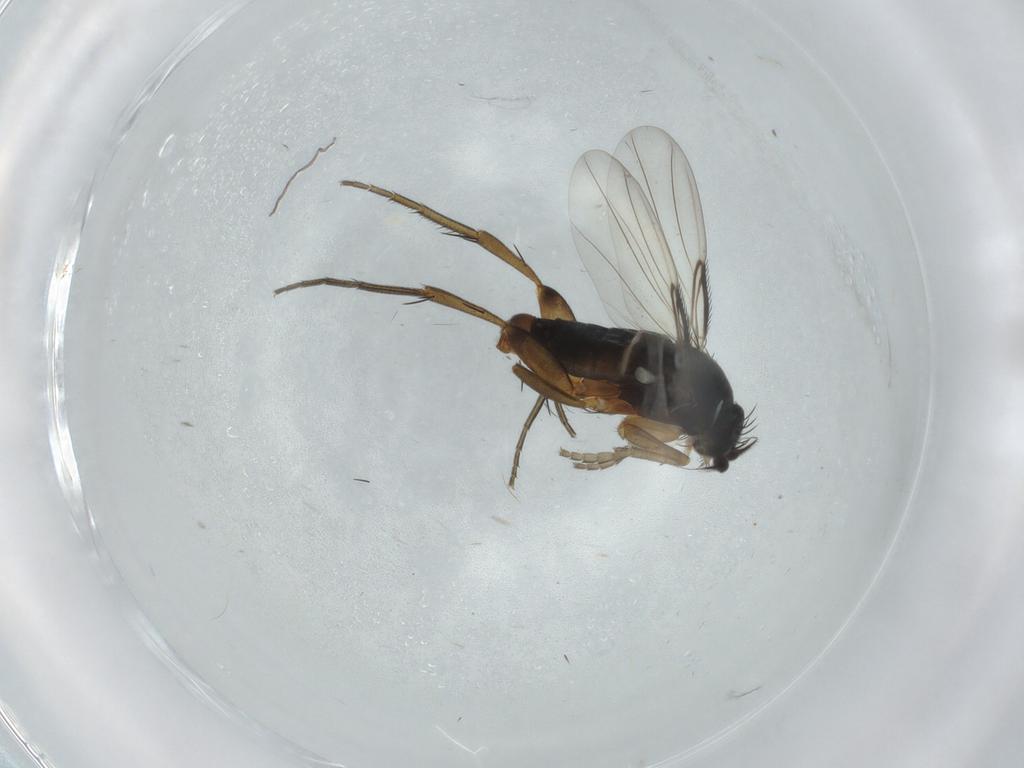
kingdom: Animalia
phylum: Arthropoda
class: Insecta
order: Diptera
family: Phoridae
